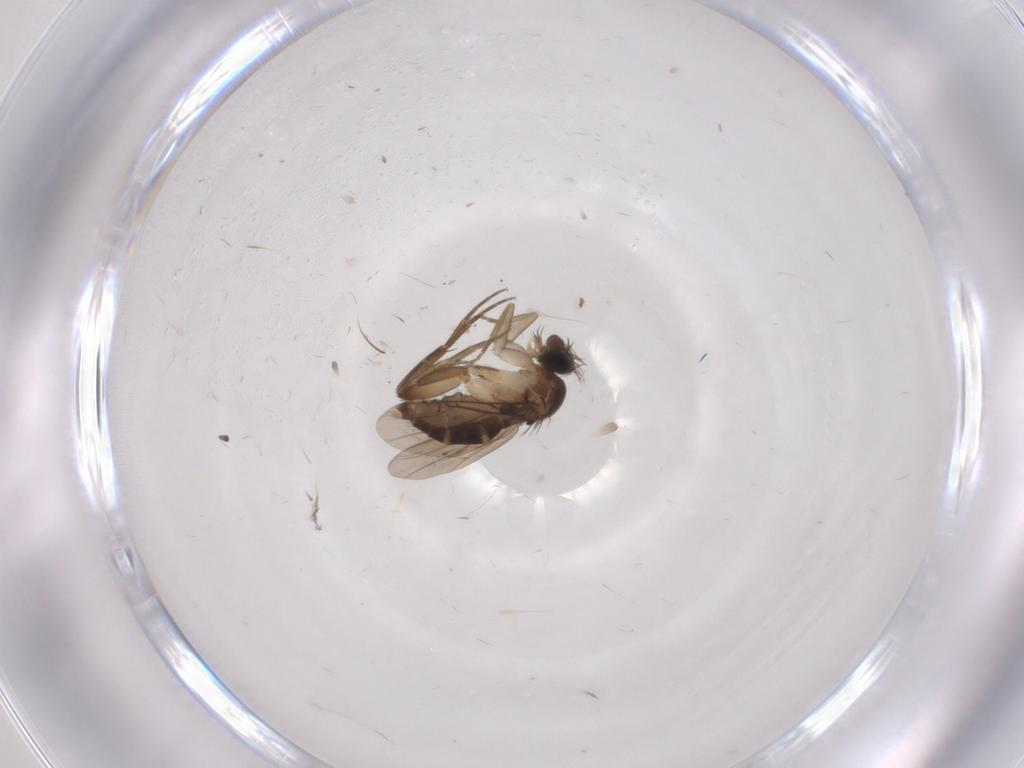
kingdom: Animalia
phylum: Arthropoda
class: Insecta
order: Diptera
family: Phoridae
